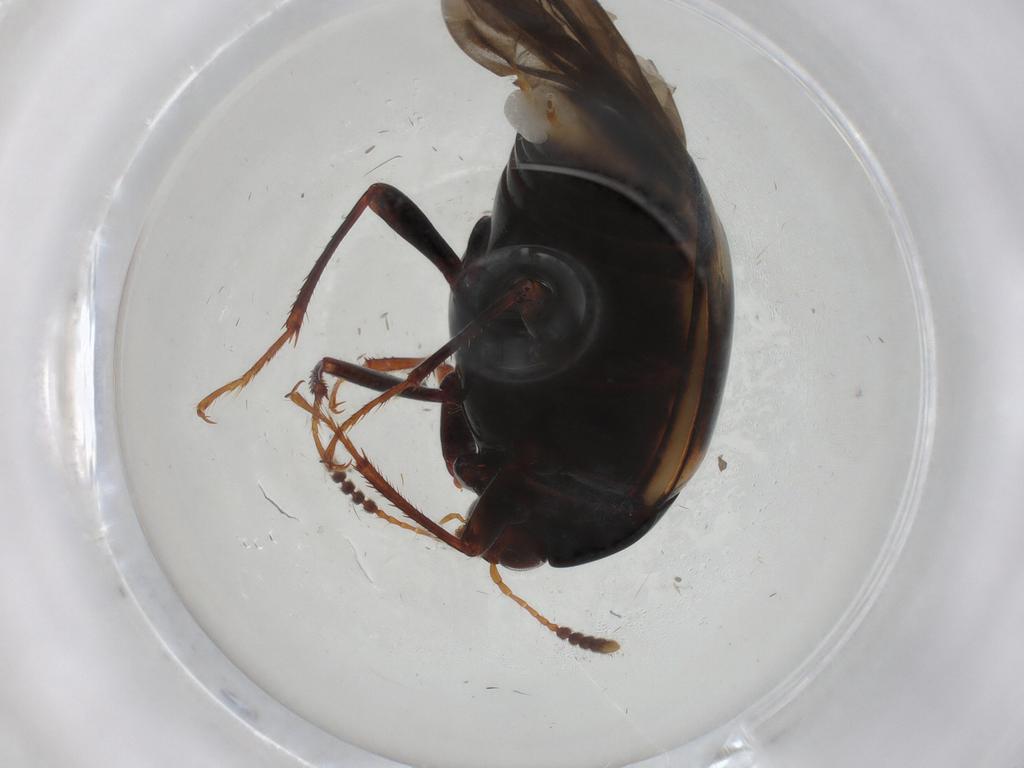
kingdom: Animalia
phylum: Arthropoda
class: Insecta
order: Coleoptera
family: Staphylinidae
